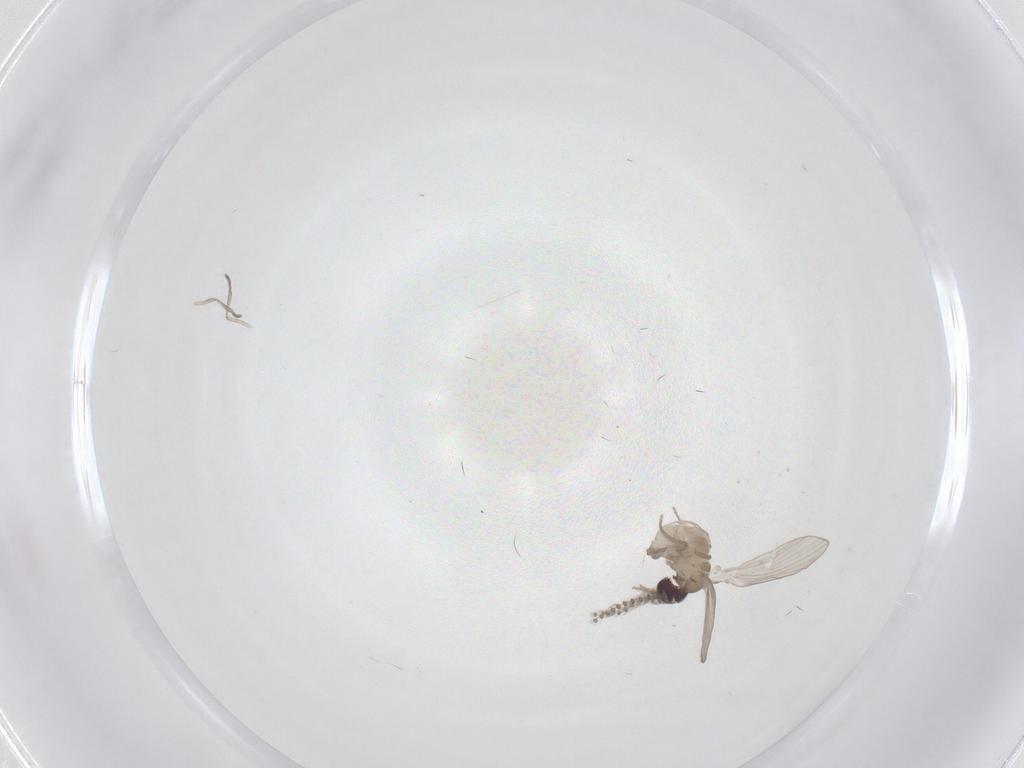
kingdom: Animalia
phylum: Arthropoda
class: Insecta
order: Diptera
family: Psychodidae
